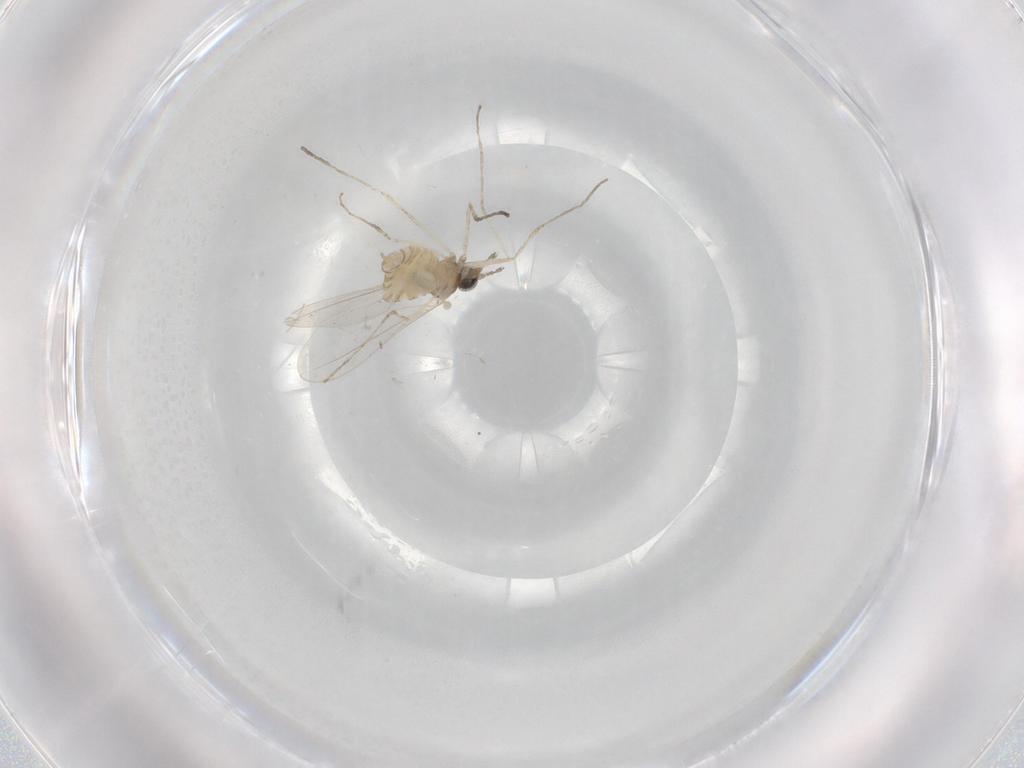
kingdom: Animalia
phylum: Arthropoda
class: Insecta
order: Diptera
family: Cecidomyiidae
